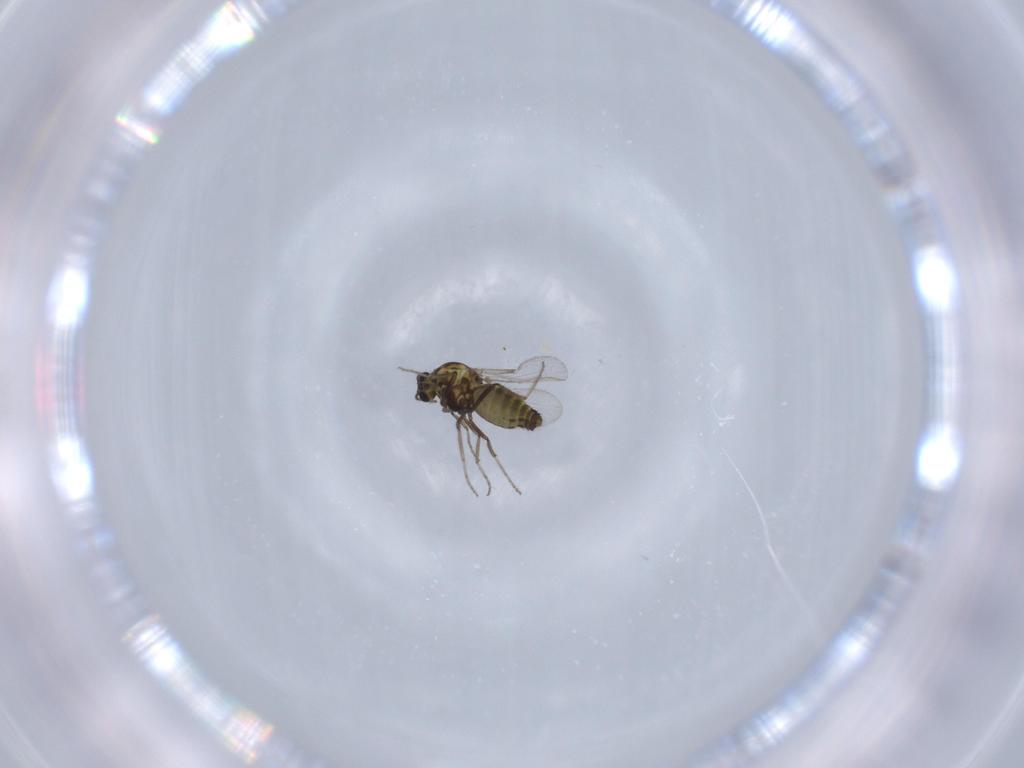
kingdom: Animalia
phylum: Arthropoda
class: Insecta
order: Diptera
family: Ceratopogonidae
